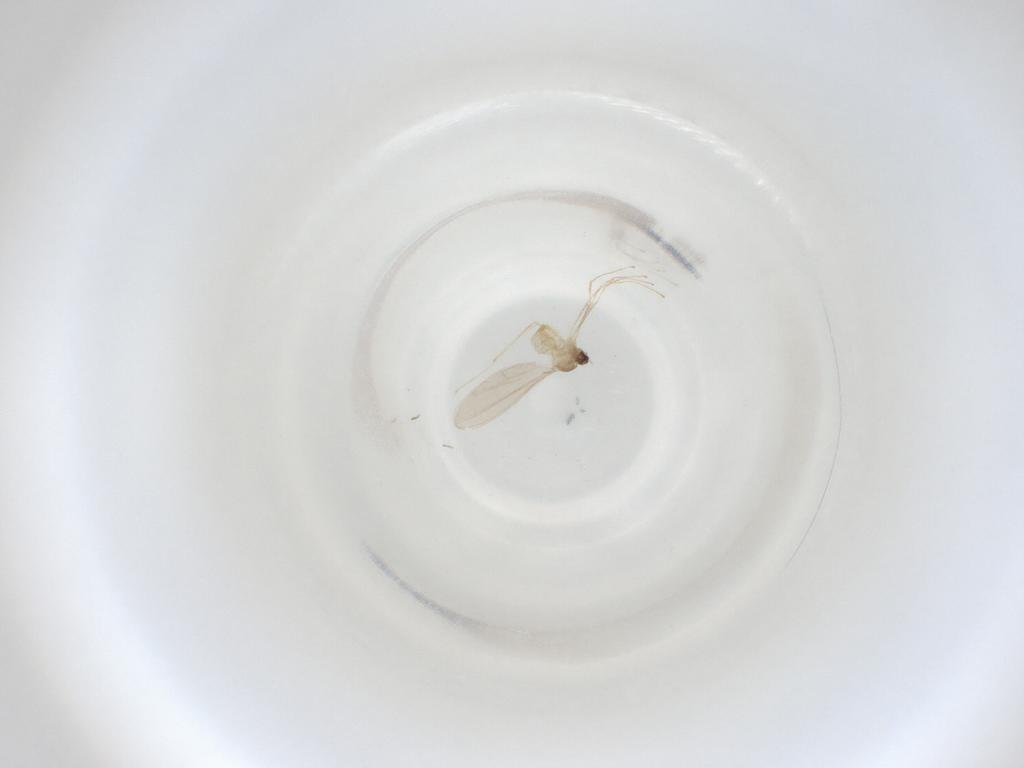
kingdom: Animalia
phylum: Arthropoda
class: Insecta
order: Diptera
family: Cecidomyiidae
